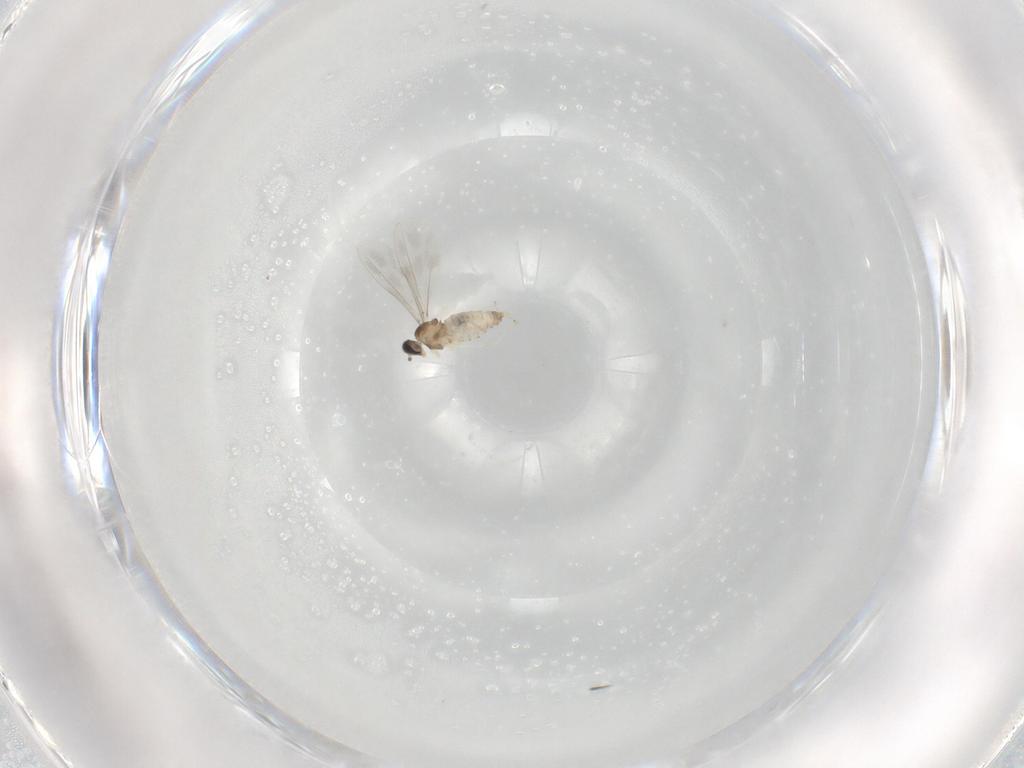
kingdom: Animalia
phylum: Arthropoda
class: Insecta
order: Diptera
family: Cecidomyiidae
